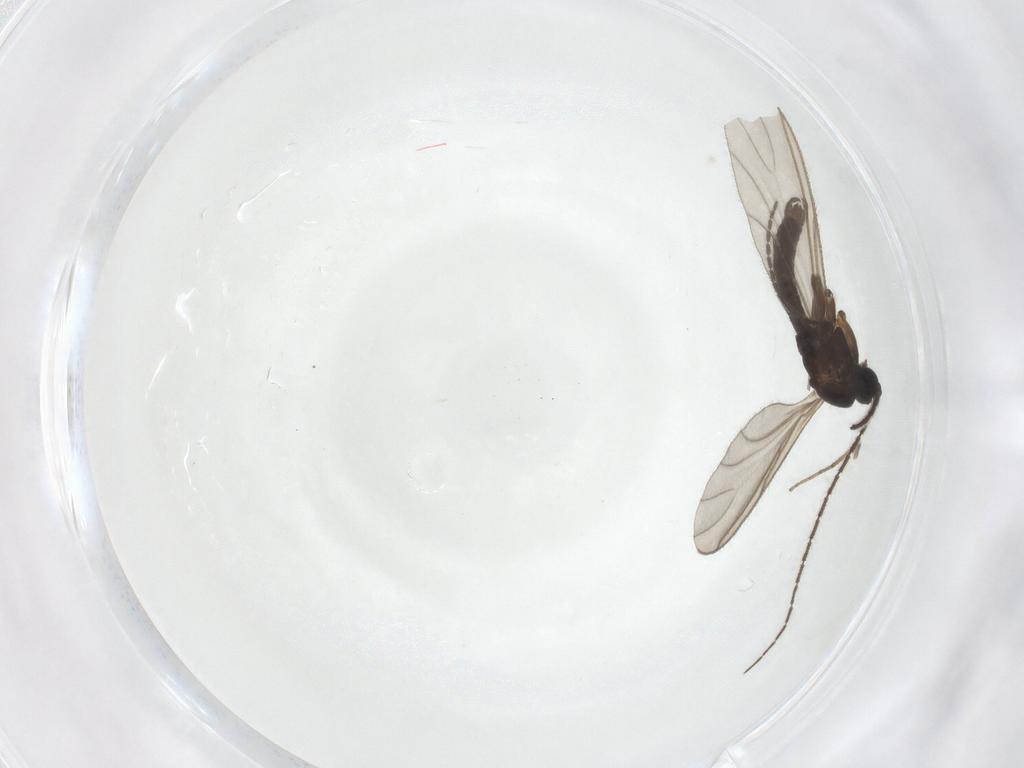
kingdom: Animalia
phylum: Arthropoda
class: Insecta
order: Diptera
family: Sciaridae
